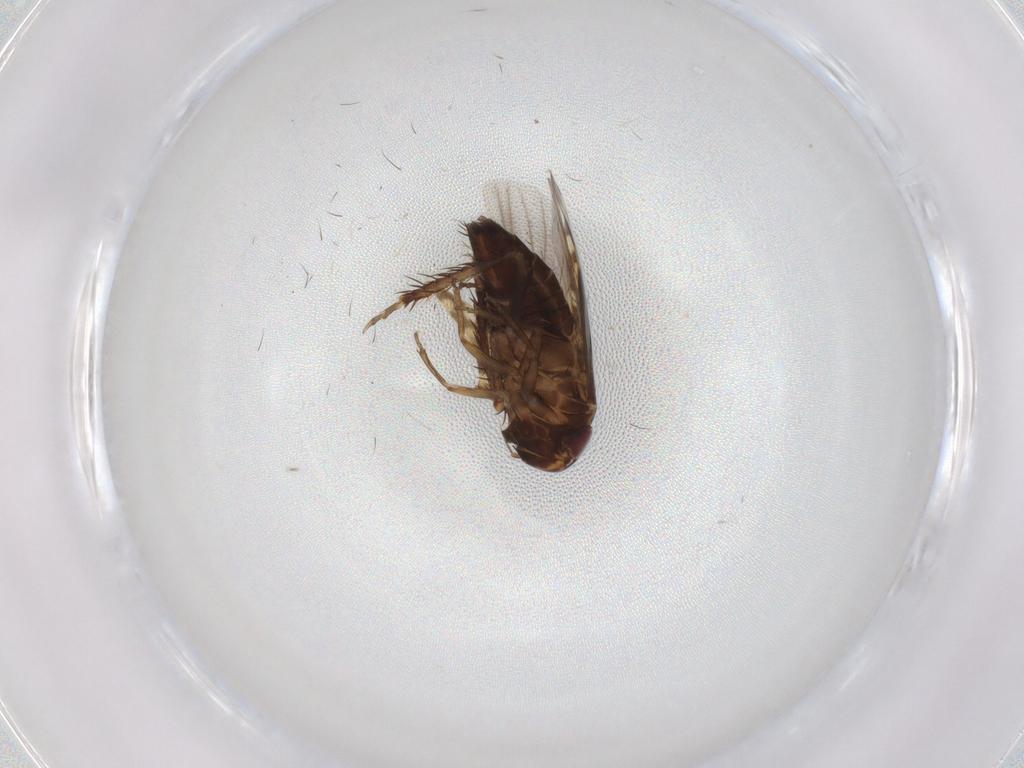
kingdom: Animalia
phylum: Arthropoda
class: Insecta
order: Hemiptera
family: Cicadellidae
